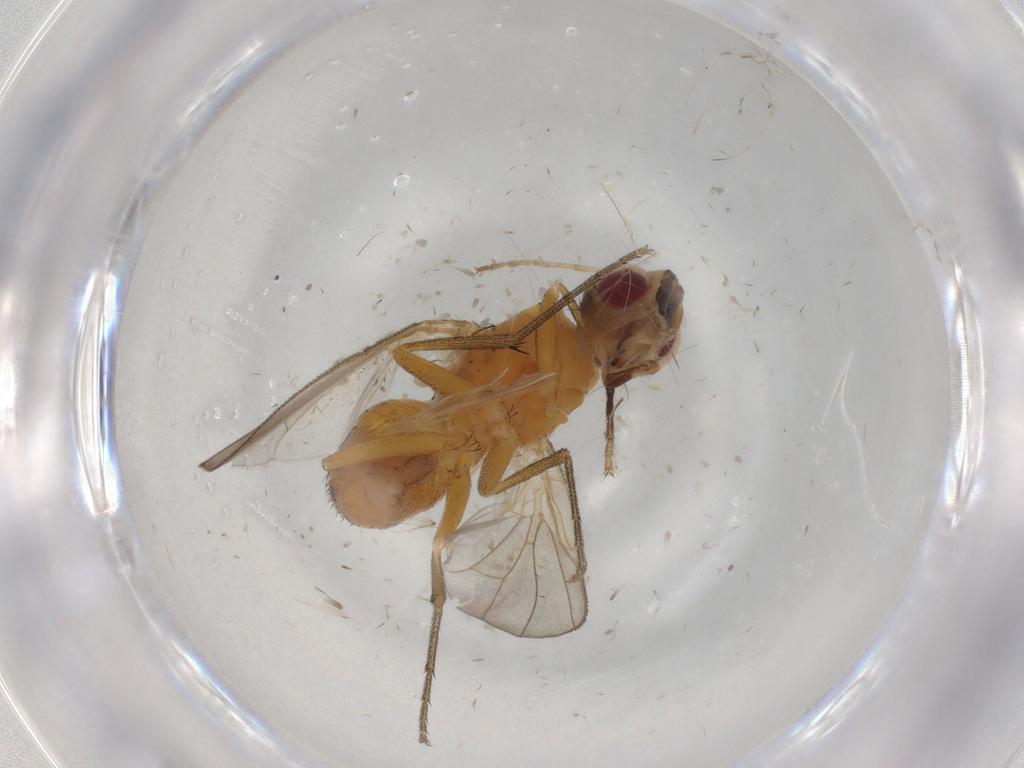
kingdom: Animalia
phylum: Arthropoda
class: Insecta
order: Diptera
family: Muscidae
